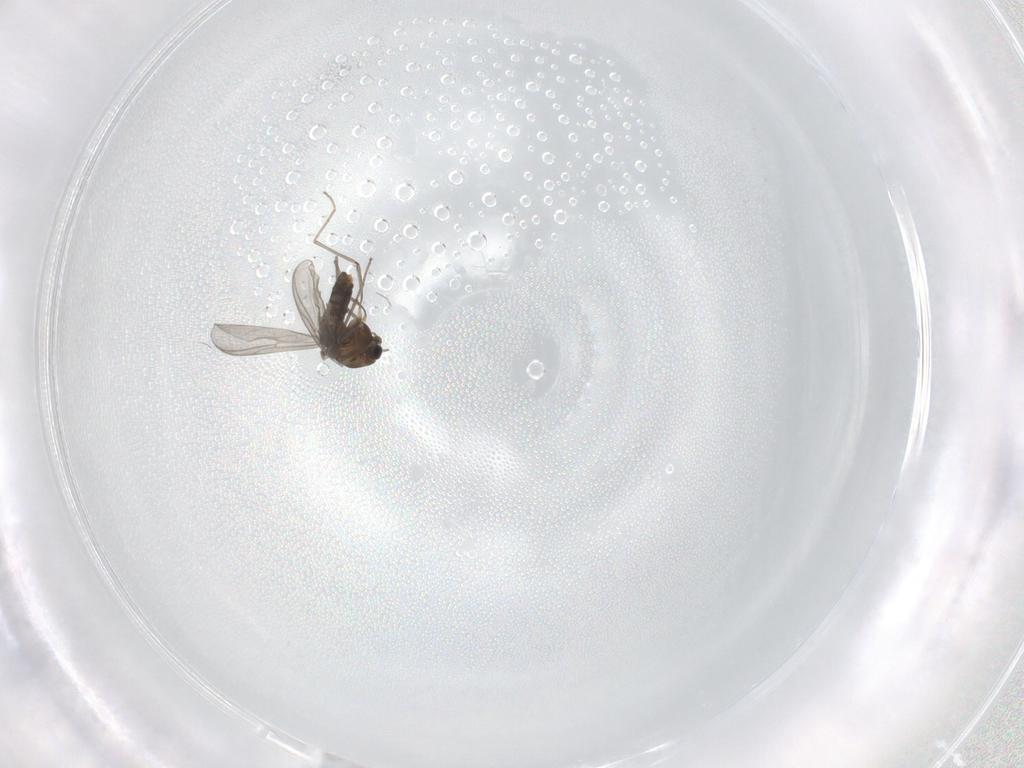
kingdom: Animalia
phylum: Arthropoda
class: Insecta
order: Diptera
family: Chironomidae
